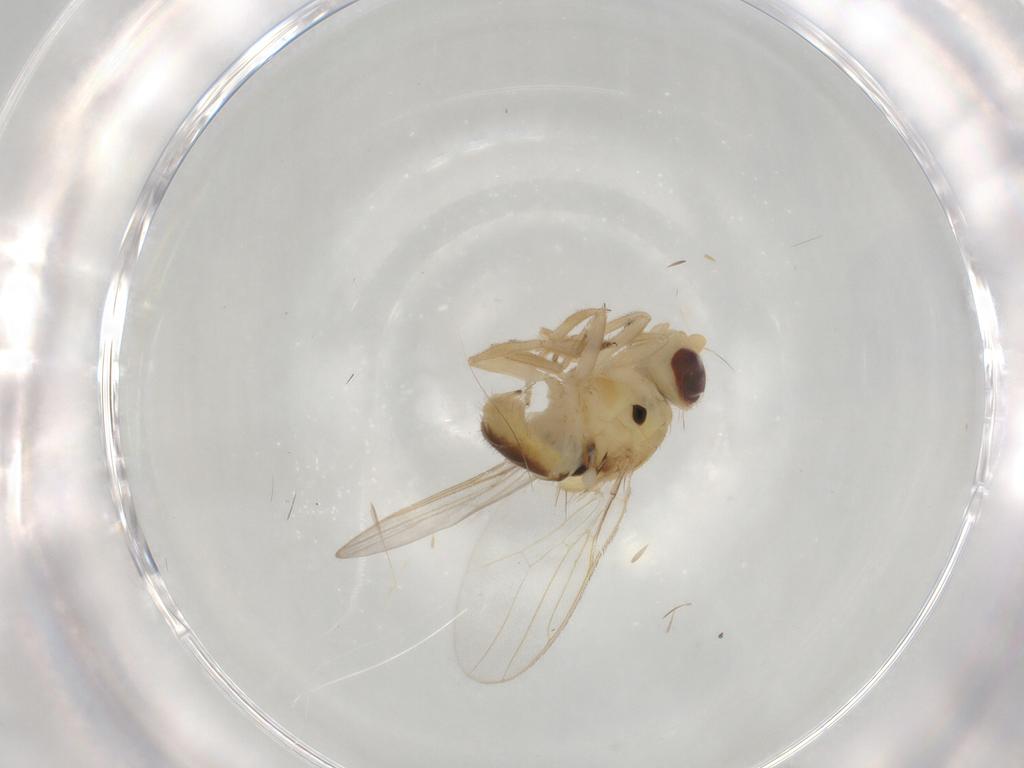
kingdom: Animalia
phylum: Arthropoda
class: Insecta
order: Diptera
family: Chloropidae
